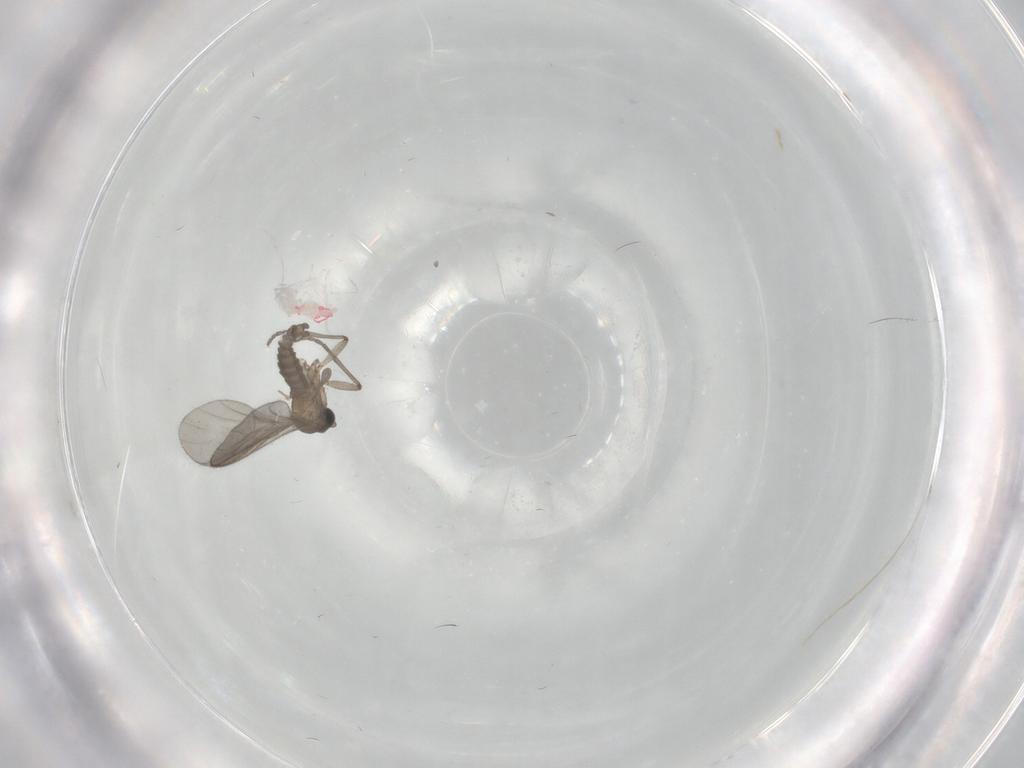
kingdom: Animalia
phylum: Arthropoda
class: Insecta
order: Diptera
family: Sciaridae
